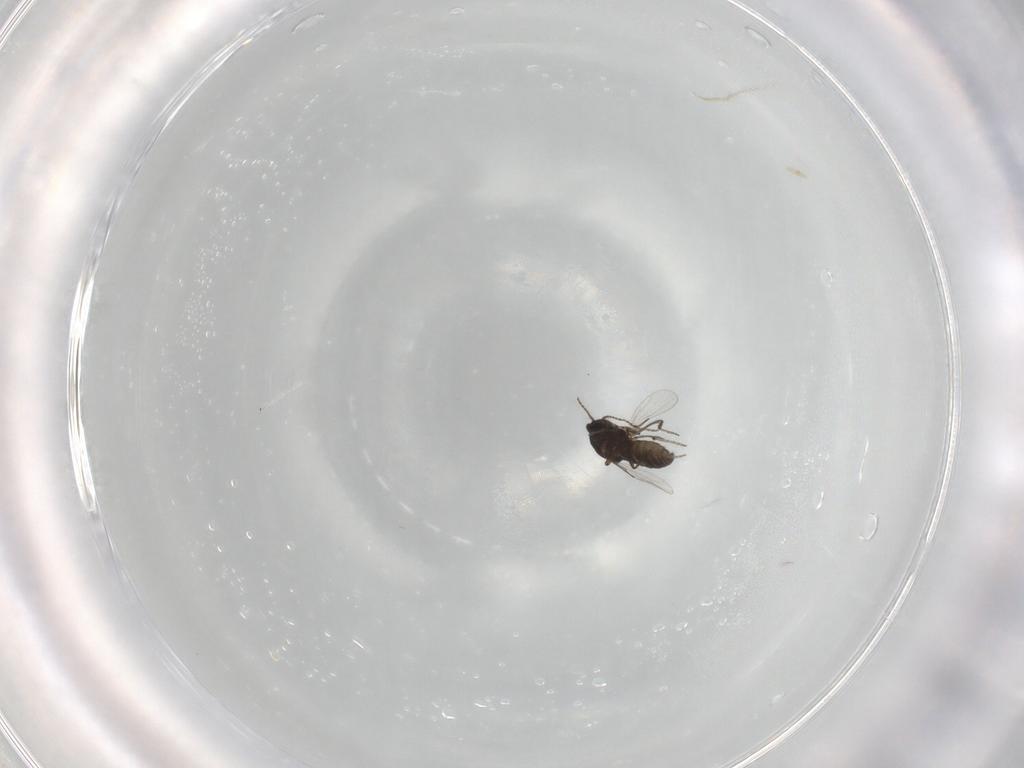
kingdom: Animalia
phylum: Arthropoda
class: Insecta
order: Diptera
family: Ceratopogonidae
